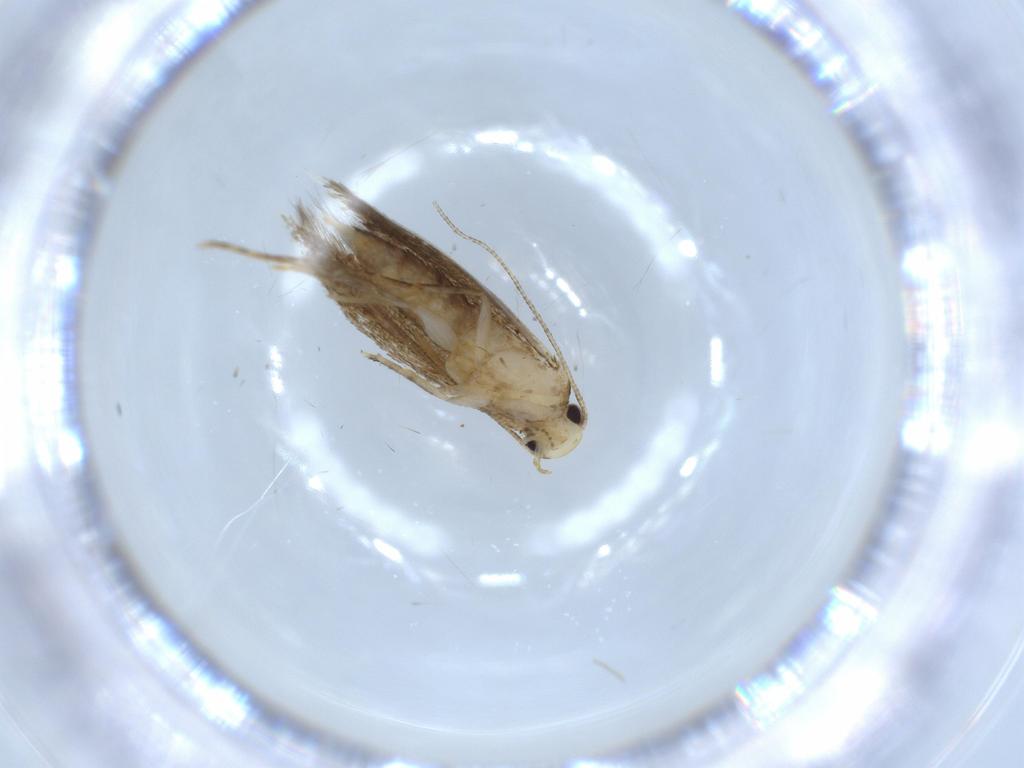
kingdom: Animalia
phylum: Arthropoda
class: Insecta
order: Lepidoptera
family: Tineidae
